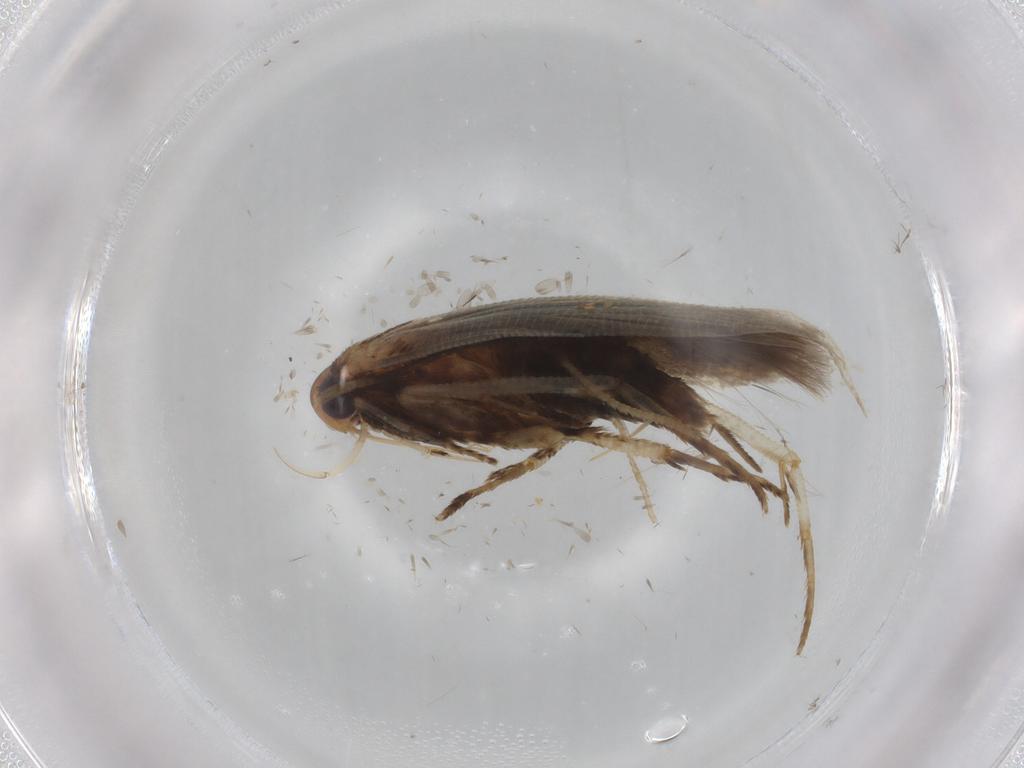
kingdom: Animalia
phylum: Arthropoda
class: Insecta
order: Lepidoptera
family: Cosmopterigidae
